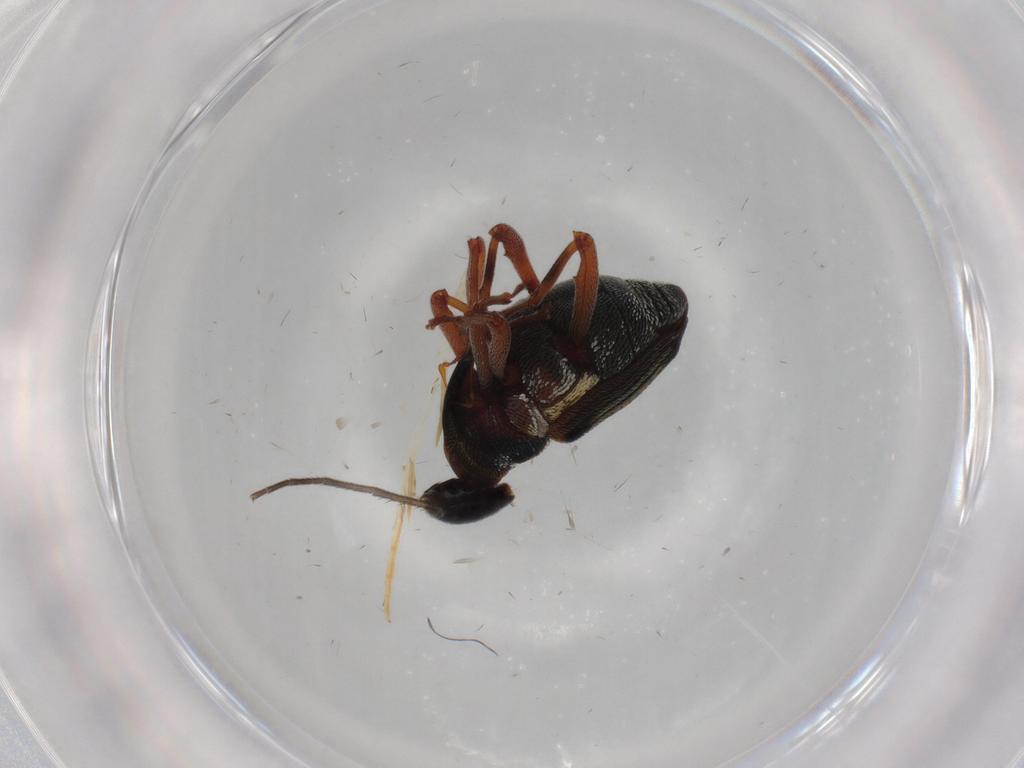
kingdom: Animalia
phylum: Arthropoda
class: Insecta
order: Coleoptera
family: Curculionidae
